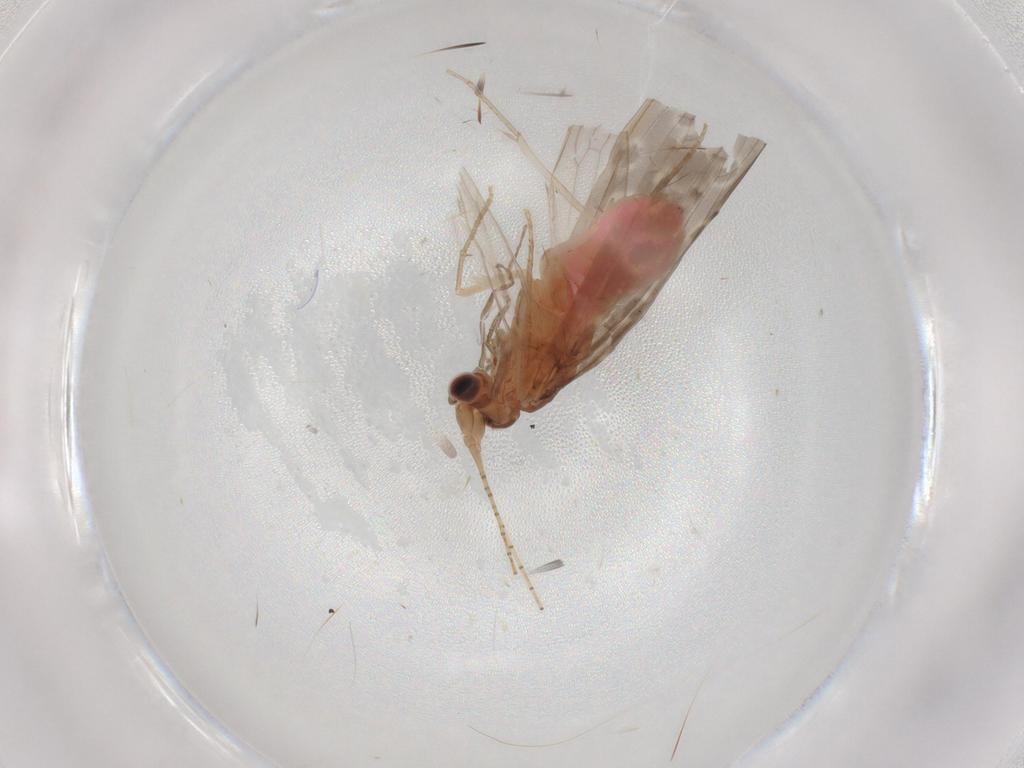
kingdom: Animalia
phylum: Arthropoda
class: Insecta
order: Trichoptera
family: Leptoceridae
